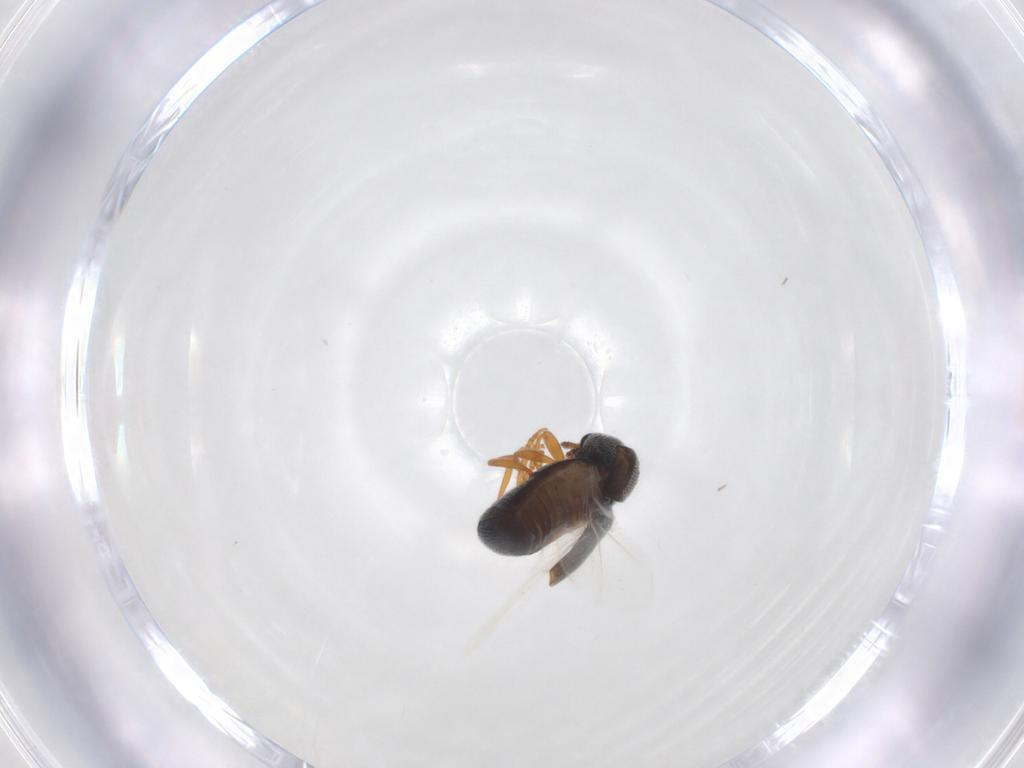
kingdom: Animalia
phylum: Arthropoda
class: Insecta
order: Coleoptera
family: Anthribidae
